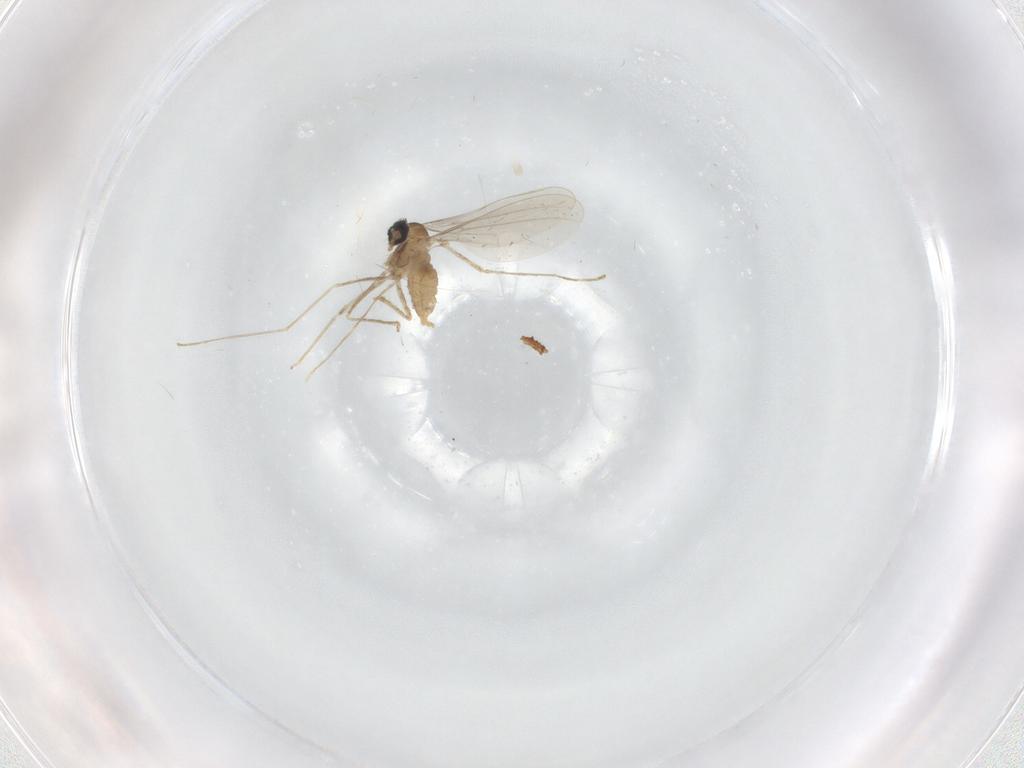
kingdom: Animalia
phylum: Arthropoda
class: Insecta
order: Diptera
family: Cecidomyiidae
